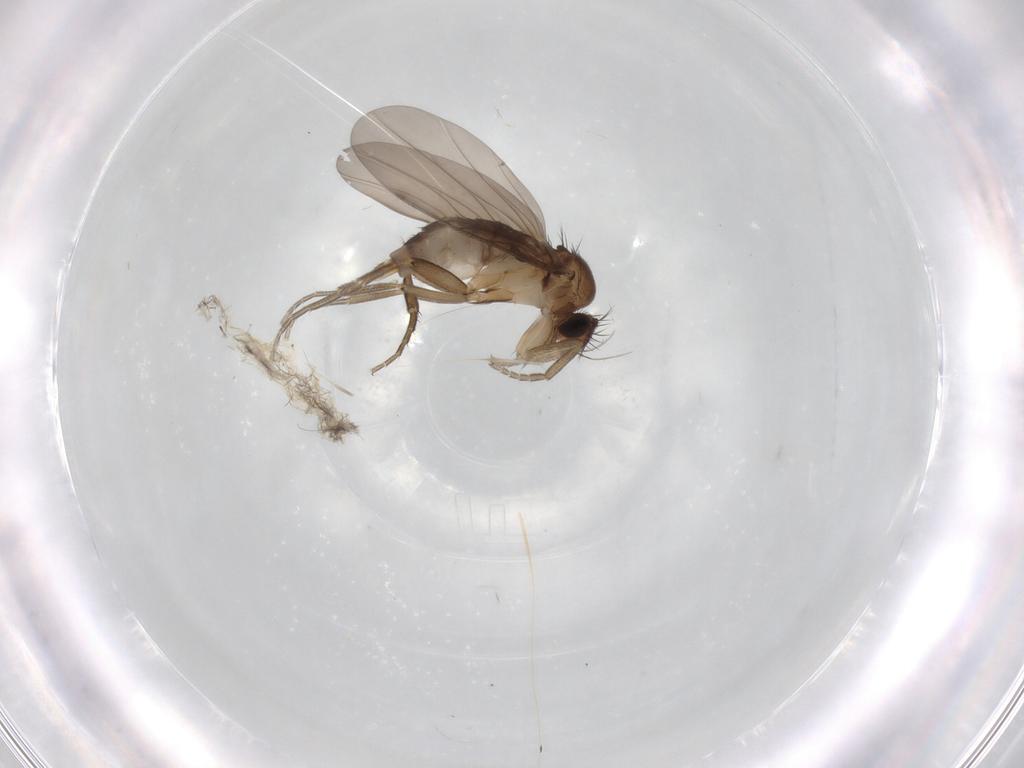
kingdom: Animalia
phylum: Arthropoda
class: Insecta
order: Diptera
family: Phoridae
